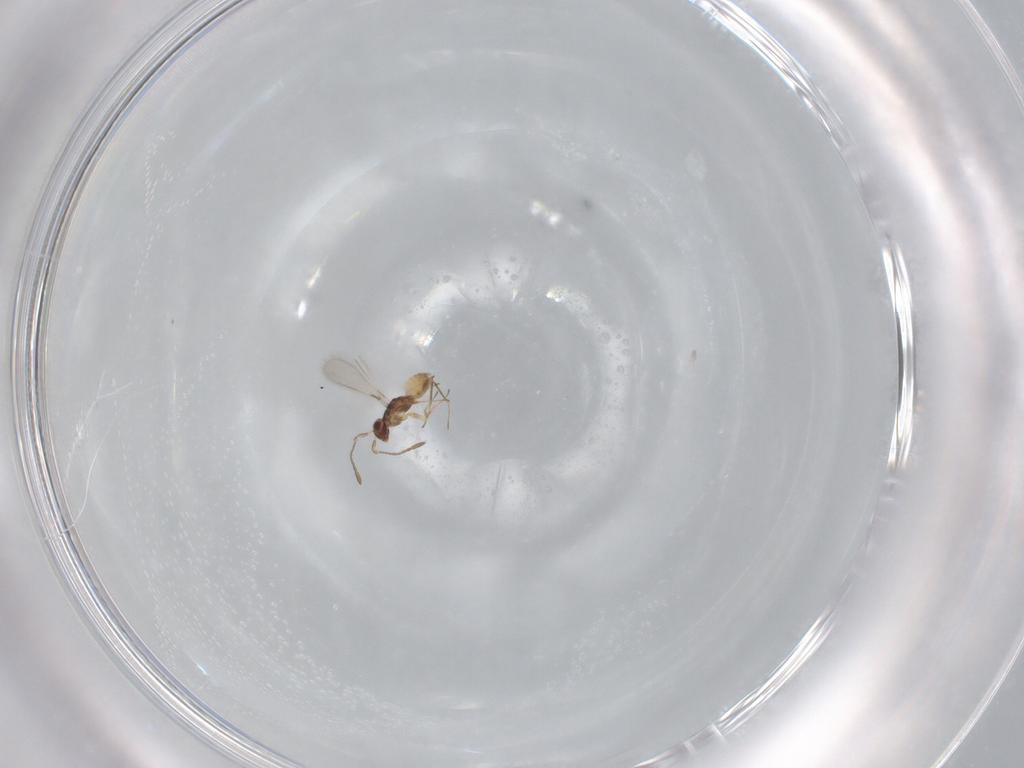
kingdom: Animalia
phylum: Arthropoda
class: Insecta
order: Hymenoptera
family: Mymaridae
